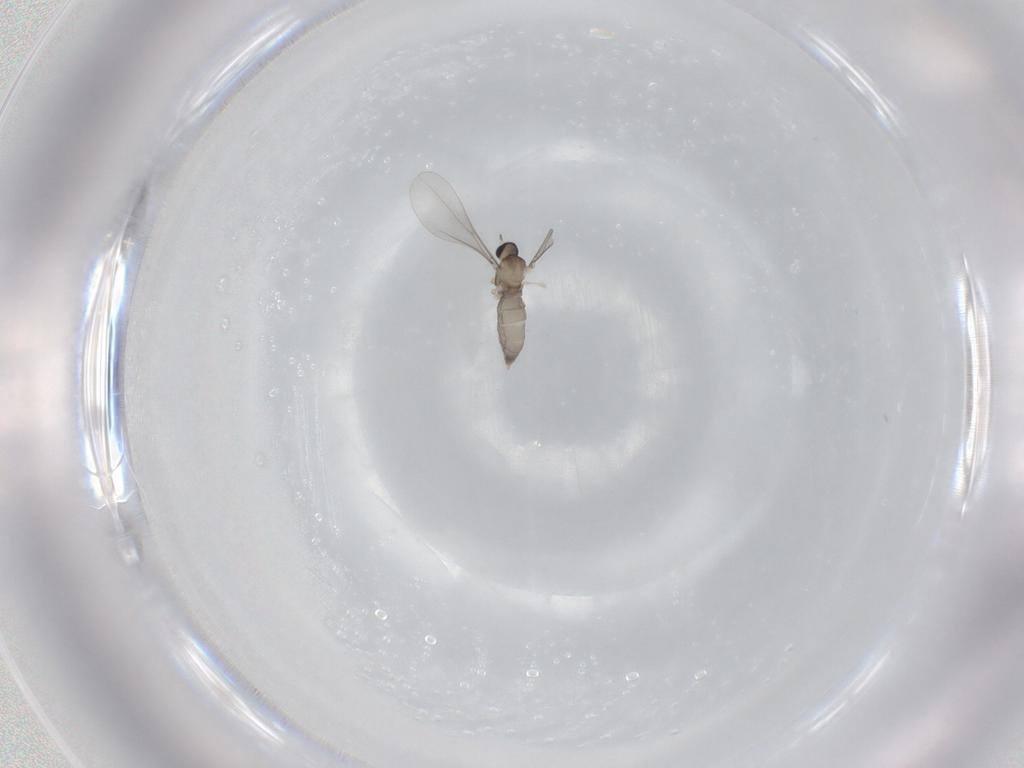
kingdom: Animalia
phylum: Arthropoda
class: Insecta
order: Diptera
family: Cecidomyiidae
